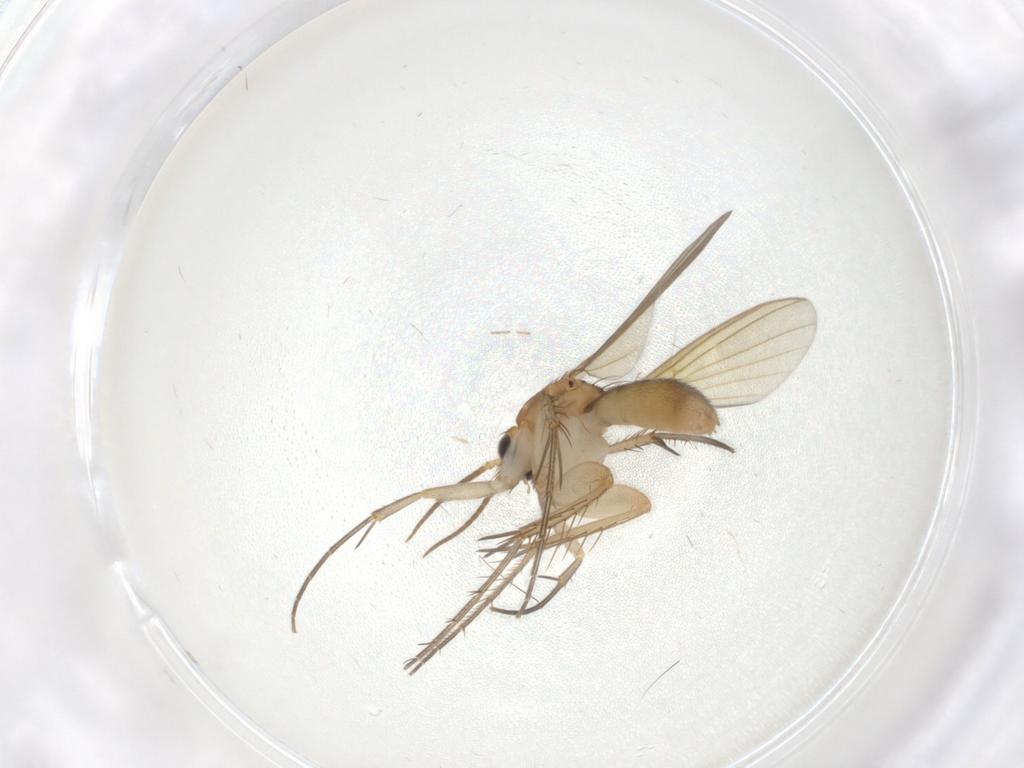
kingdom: Animalia
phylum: Arthropoda
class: Insecta
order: Diptera
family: Mycetophilidae
